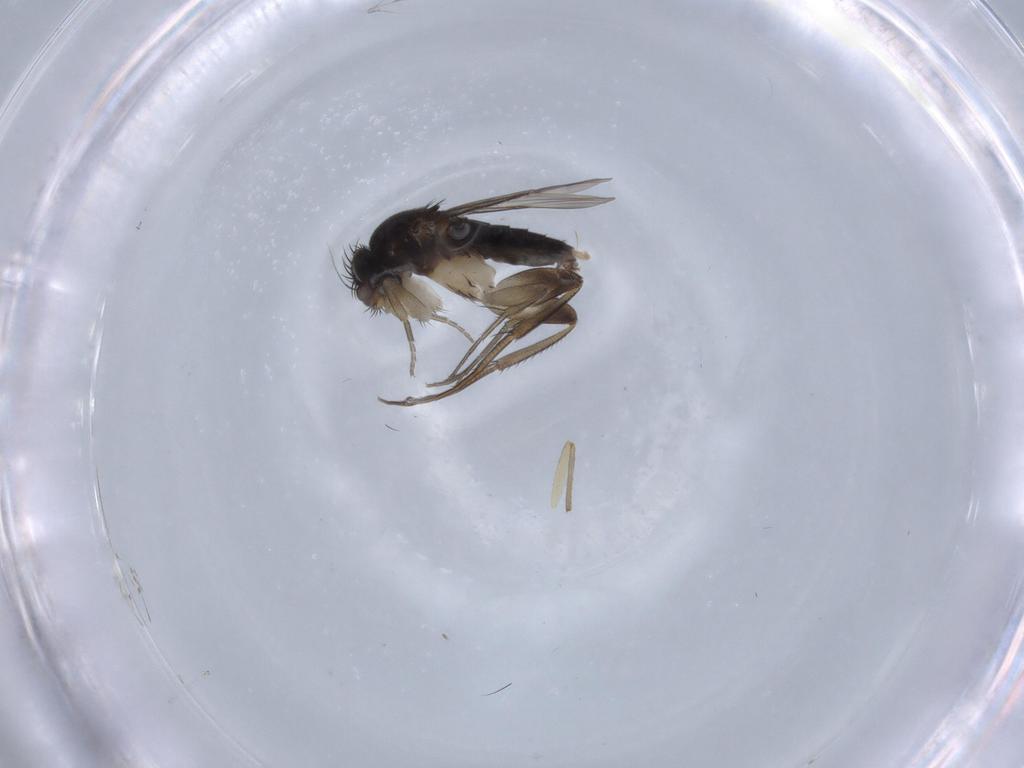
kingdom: Animalia
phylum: Arthropoda
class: Insecta
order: Diptera
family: Phoridae
